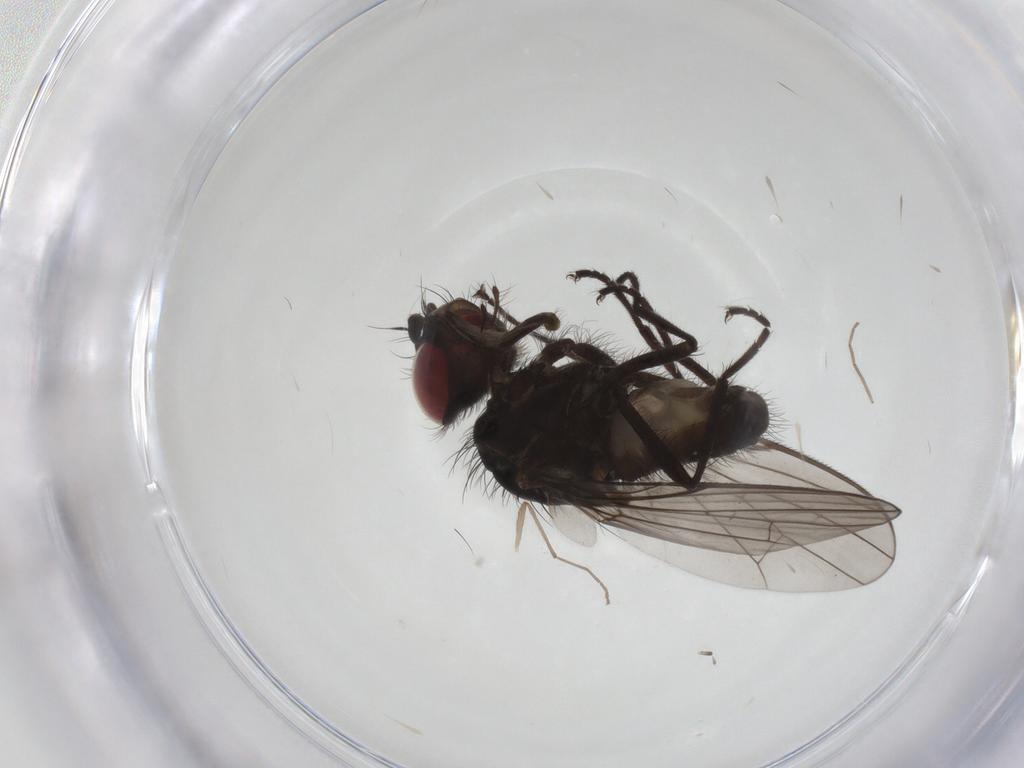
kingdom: Animalia
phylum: Arthropoda
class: Insecta
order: Diptera
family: Anthomyiidae
